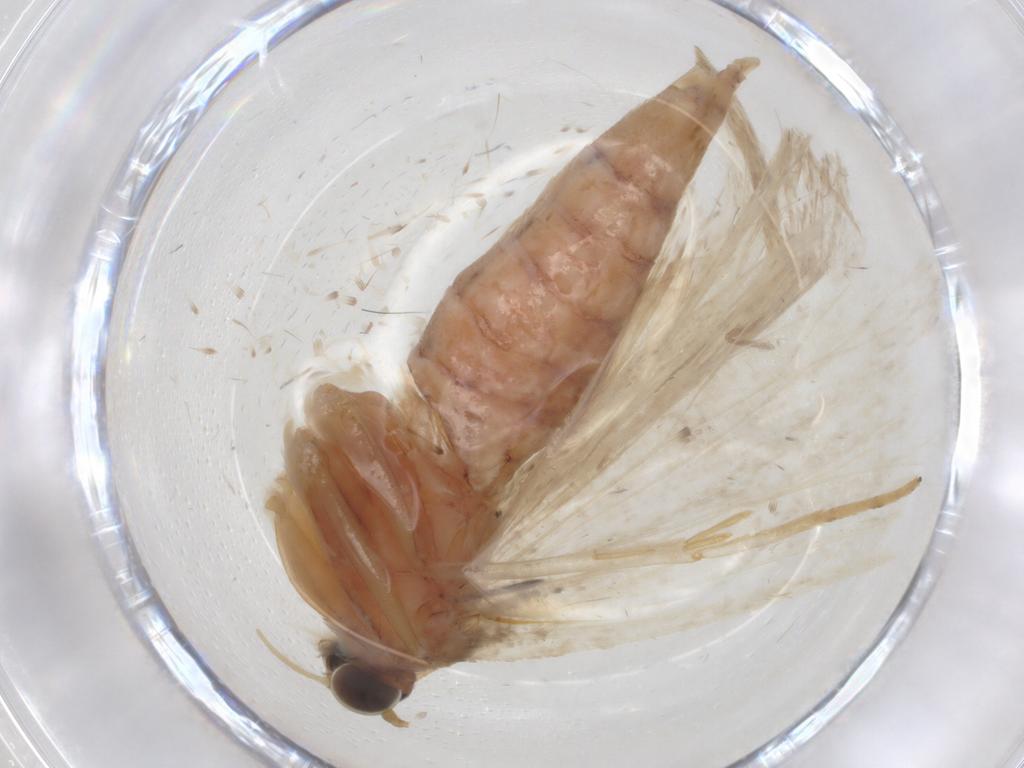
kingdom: Animalia
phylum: Arthropoda
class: Insecta
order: Lepidoptera
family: Crambidae
